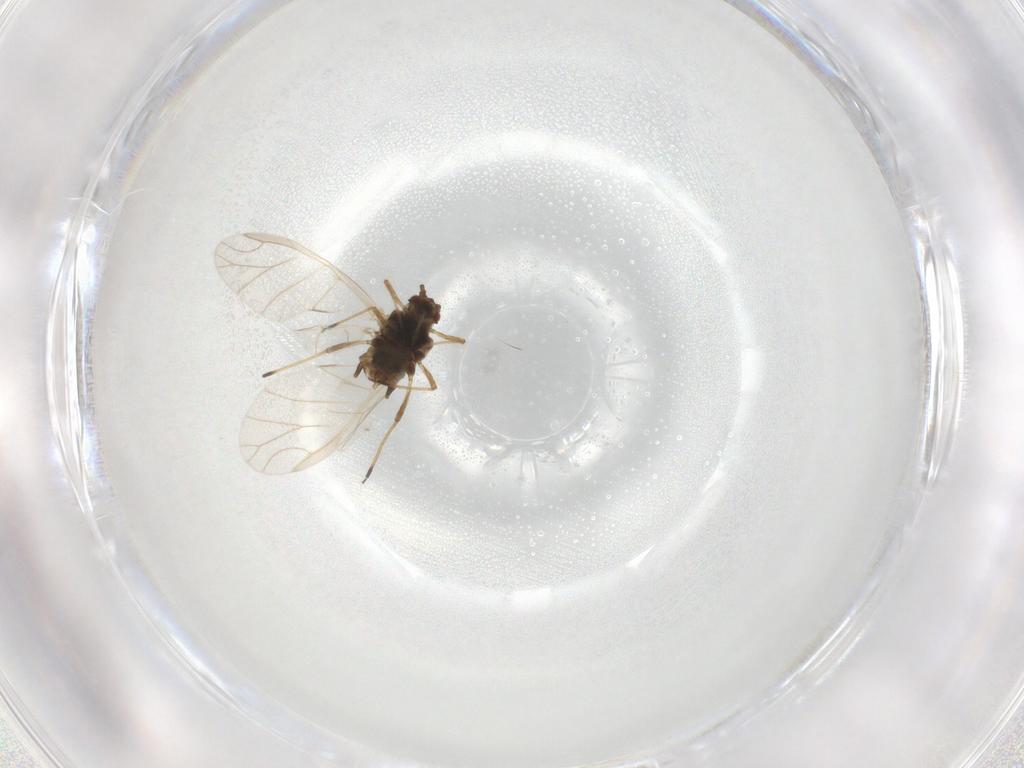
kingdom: Animalia
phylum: Arthropoda
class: Insecta
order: Hemiptera
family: Aphididae
